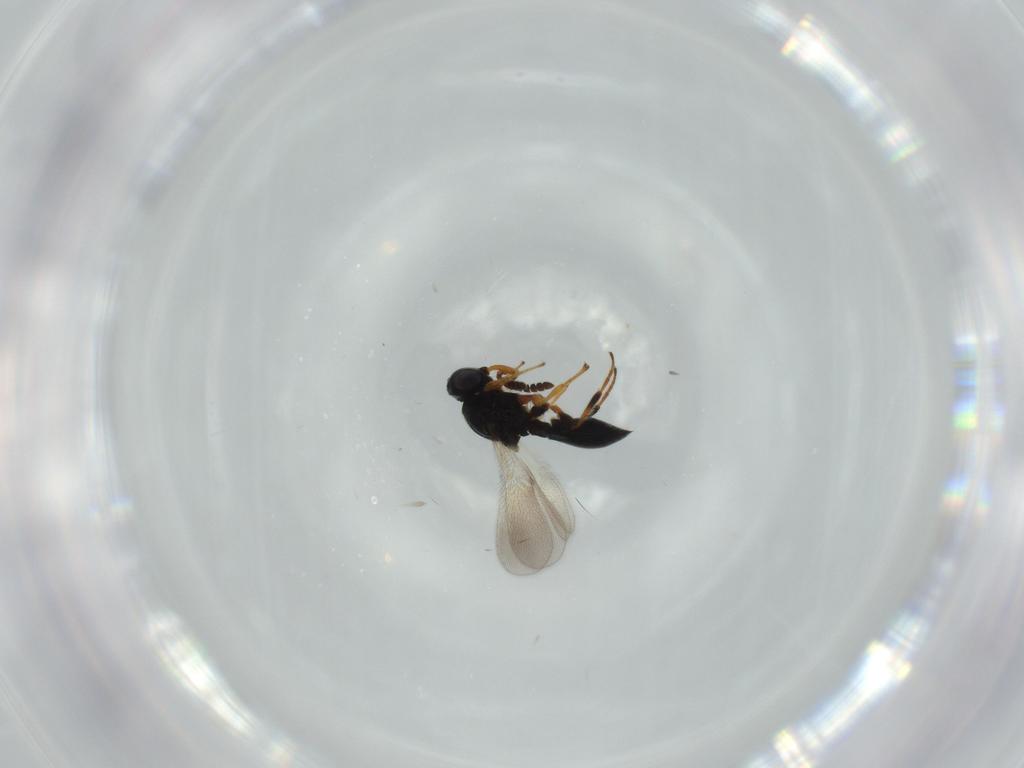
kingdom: Animalia
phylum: Arthropoda
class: Insecta
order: Hymenoptera
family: Platygastridae
